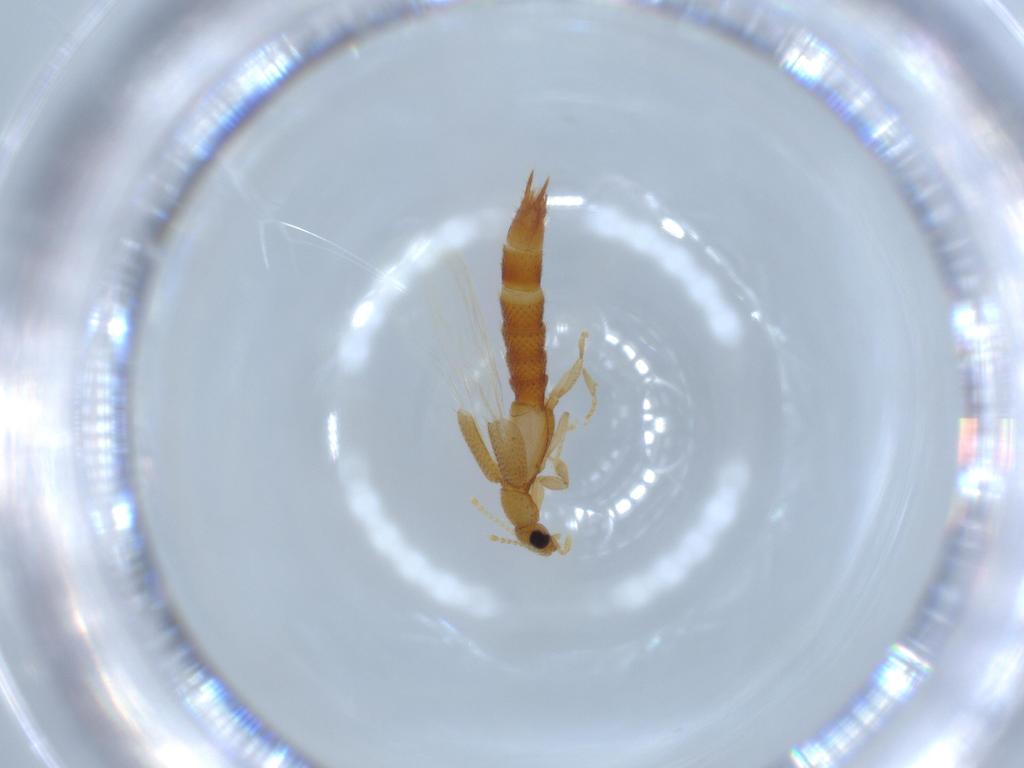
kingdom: Animalia
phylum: Arthropoda
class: Insecta
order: Coleoptera
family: Staphylinidae
